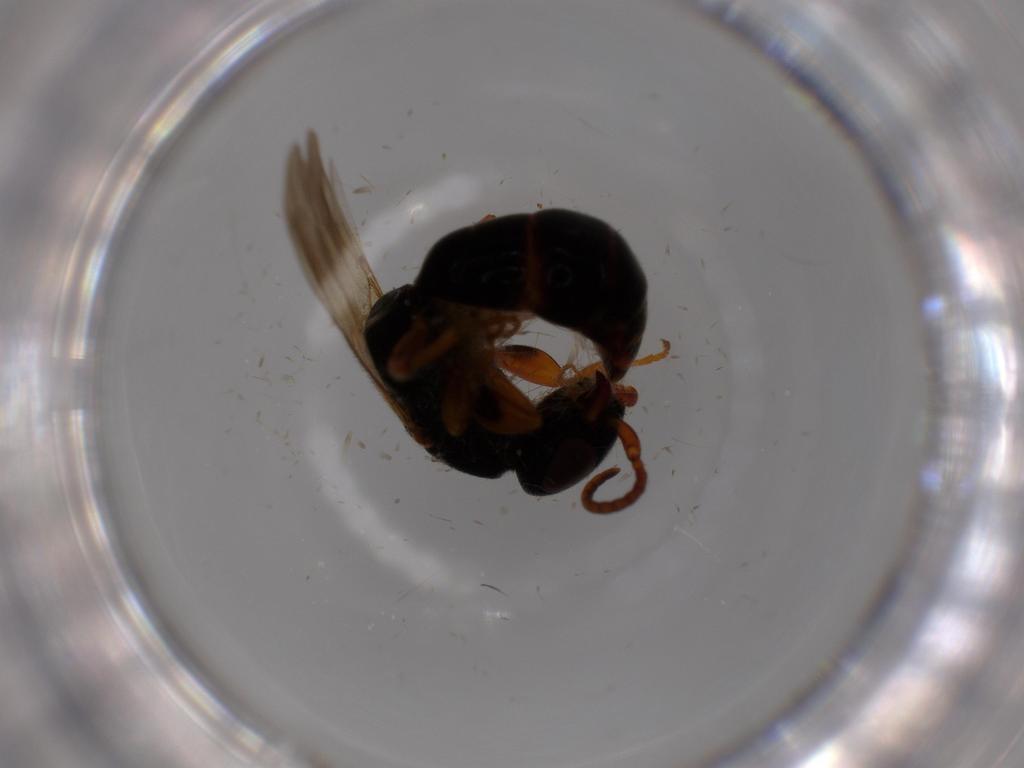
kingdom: Animalia
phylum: Arthropoda
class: Insecta
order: Hymenoptera
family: Bethylidae
